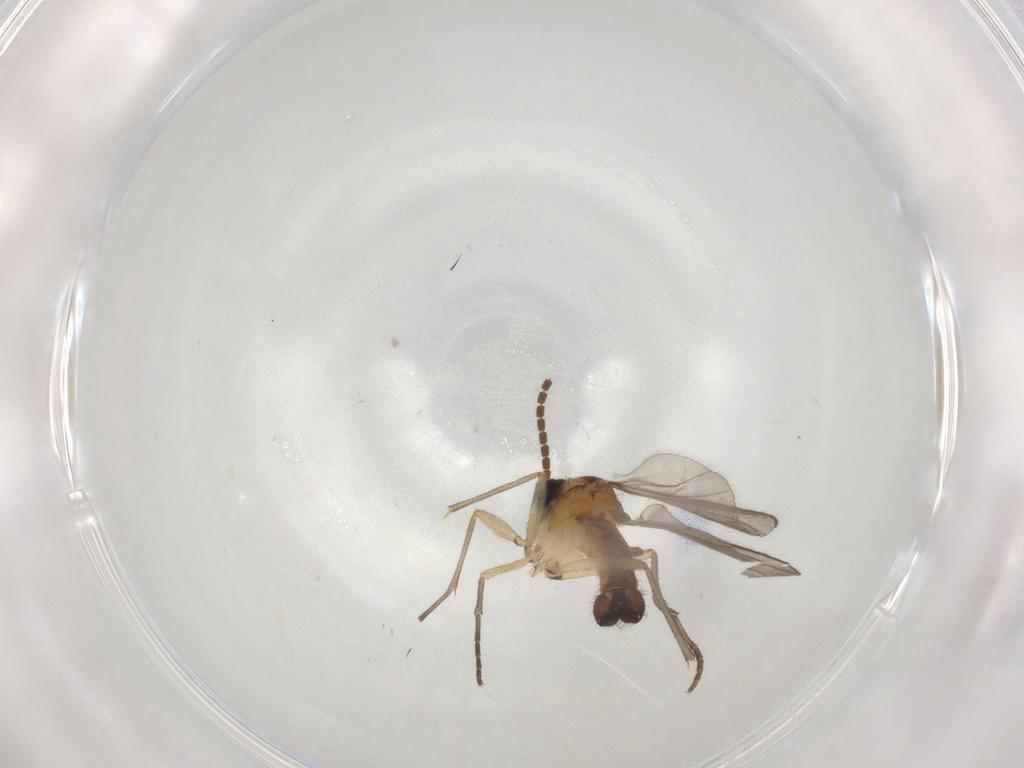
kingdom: Animalia
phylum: Arthropoda
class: Insecta
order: Diptera
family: Sciaridae
